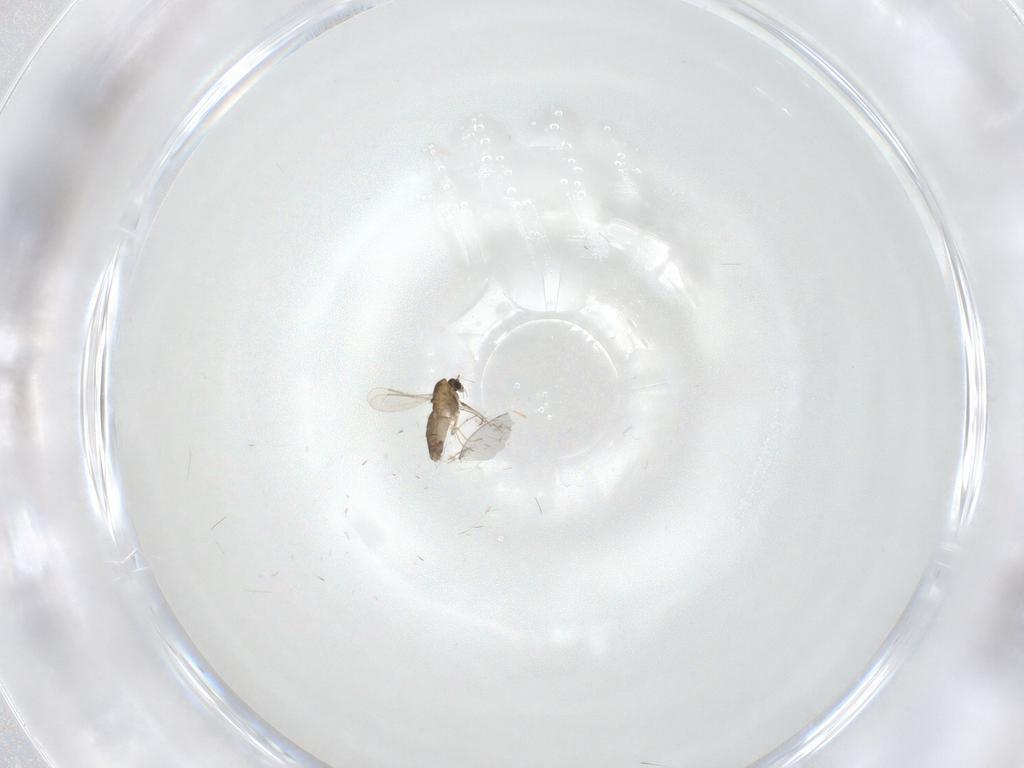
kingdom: Animalia
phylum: Arthropoda
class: Insecta
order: Diptera
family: Chironomidae
